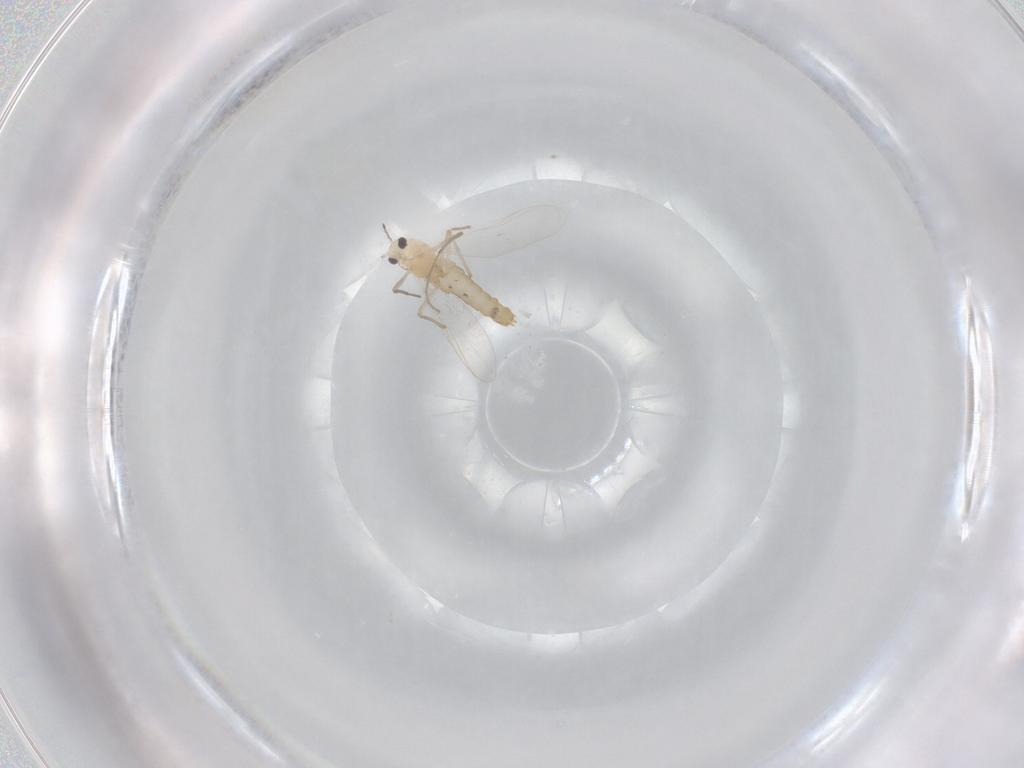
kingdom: Animalia
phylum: Arthropoda
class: Insecta
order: Diptera
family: Chironomidae
